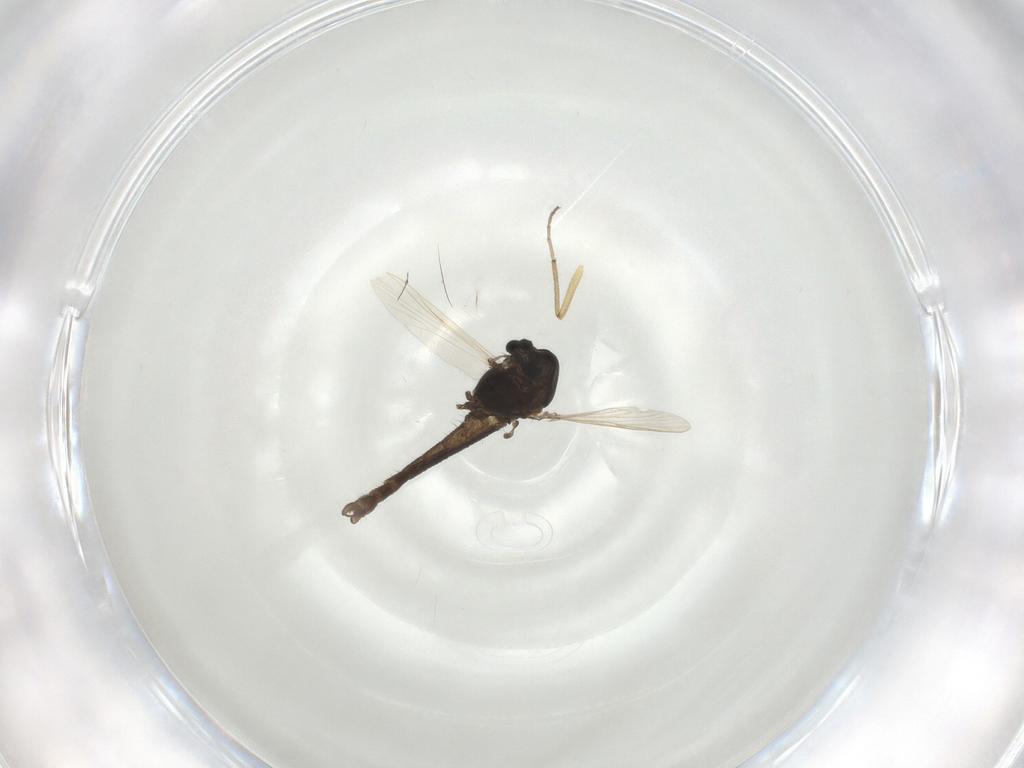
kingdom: Animalia
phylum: Arthropoda
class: Insecta
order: Diptera
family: Chironomidae
